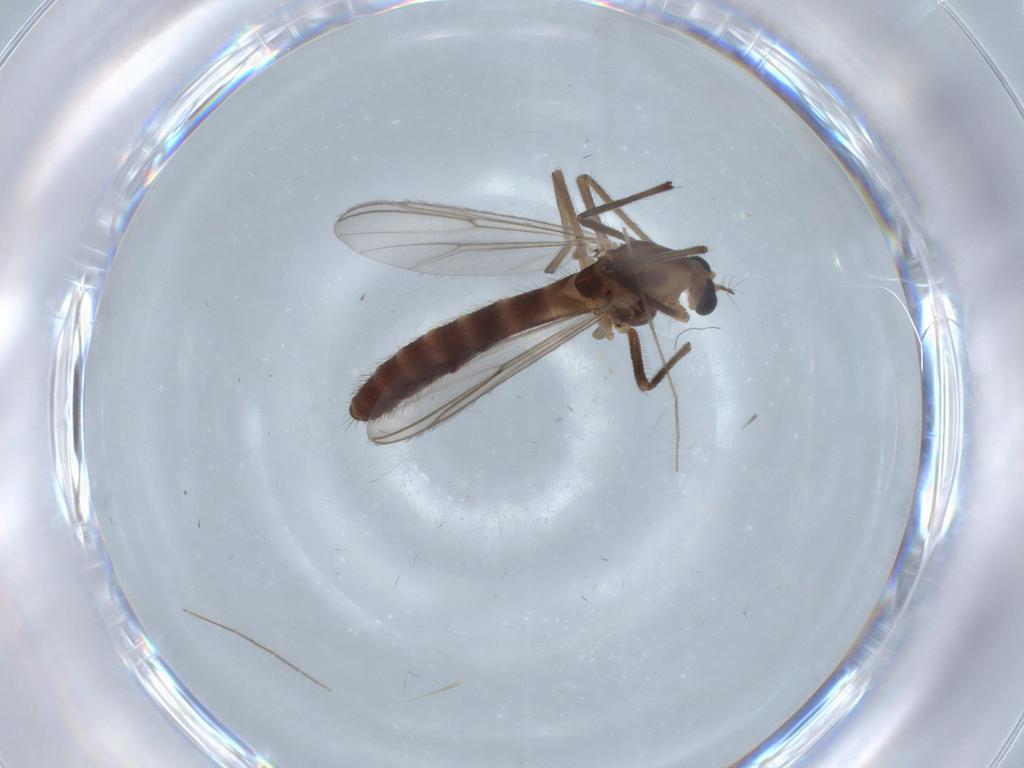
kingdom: Animalia
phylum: Arthropoda
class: Insecta
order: Diptera
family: Chironomidae
